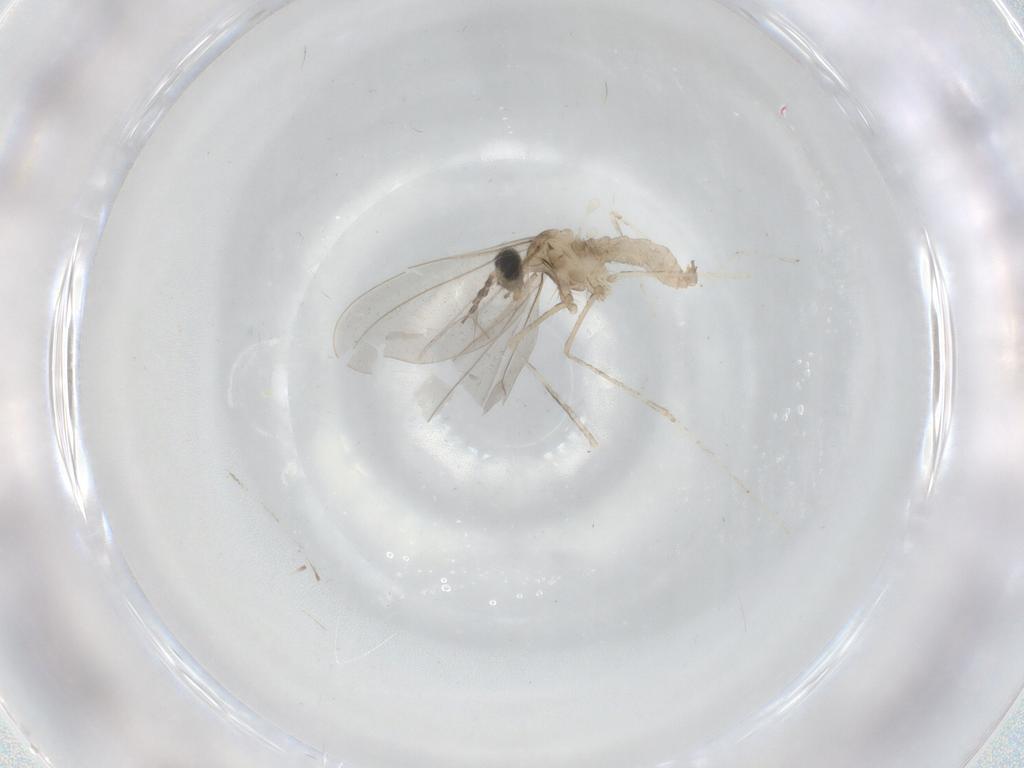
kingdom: Animalia
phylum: Arthropoda
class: Insecta
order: Diptera
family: Cecidomyiidae
